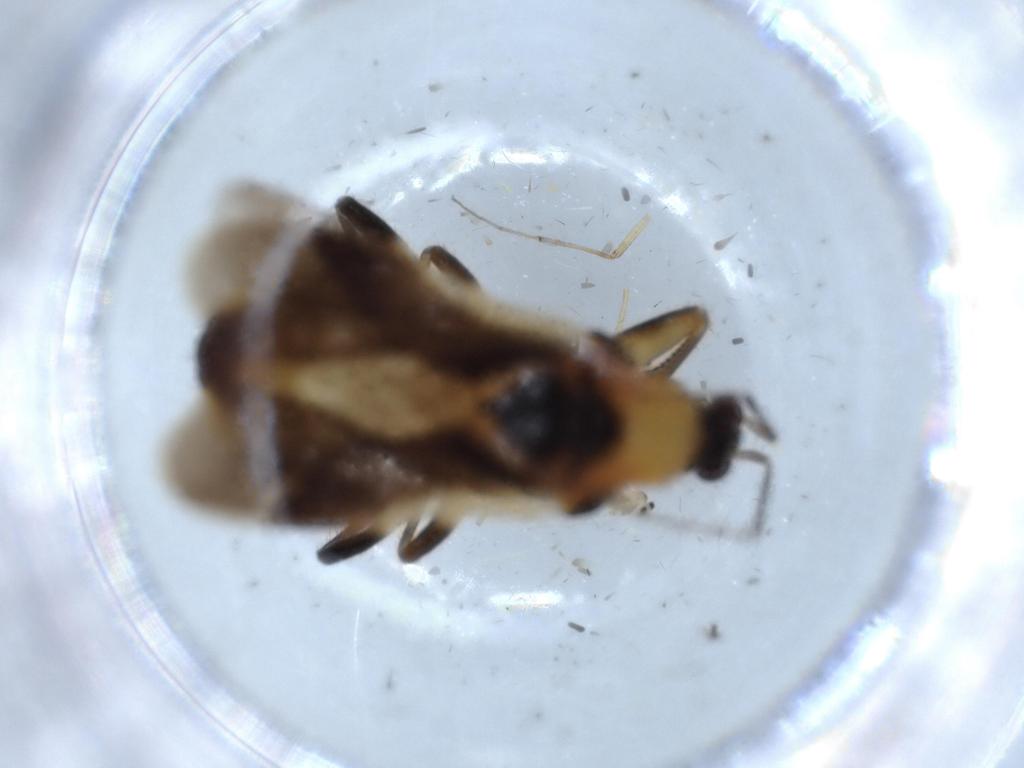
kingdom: Animalia
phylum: Arthropoda
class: Insecta
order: Hemiptera
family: Nabidae
